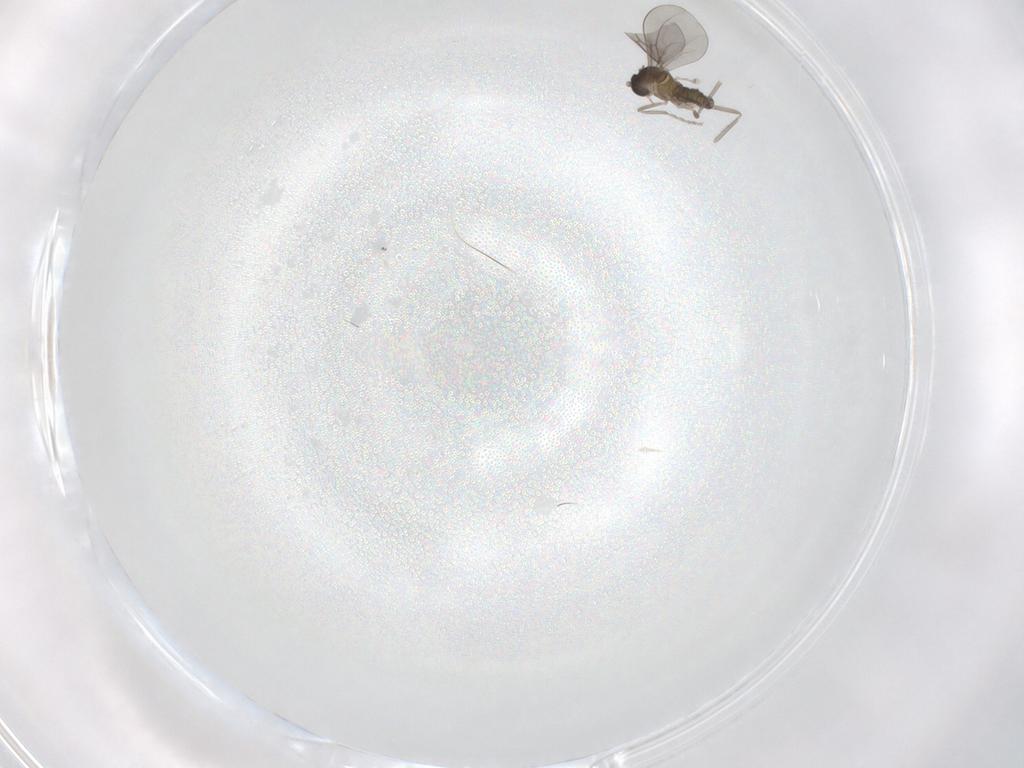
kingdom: Animalia
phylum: Arthropoda
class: Insecta
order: Diptera
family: Cecidomyiidae
